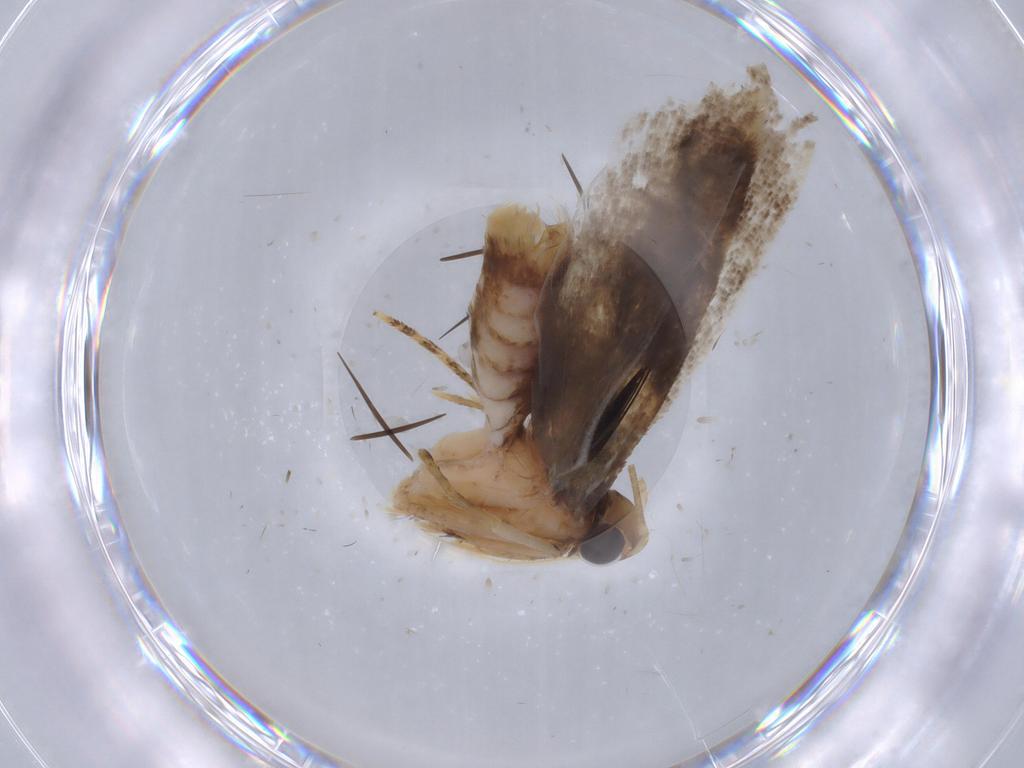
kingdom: Animalia
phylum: Arthropoda
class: Insecta
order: Lepidoptera
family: Gelechiidae
